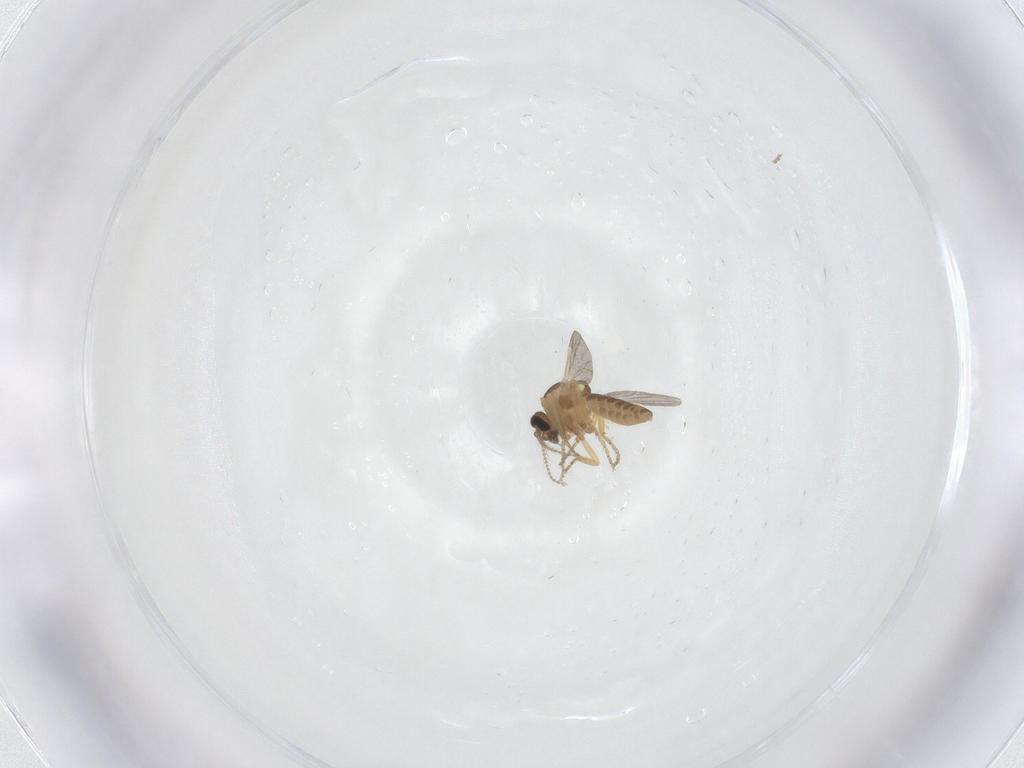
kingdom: Animalia
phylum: Arthropoda
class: Insecta
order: Diptera
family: Ceratopogonidae
